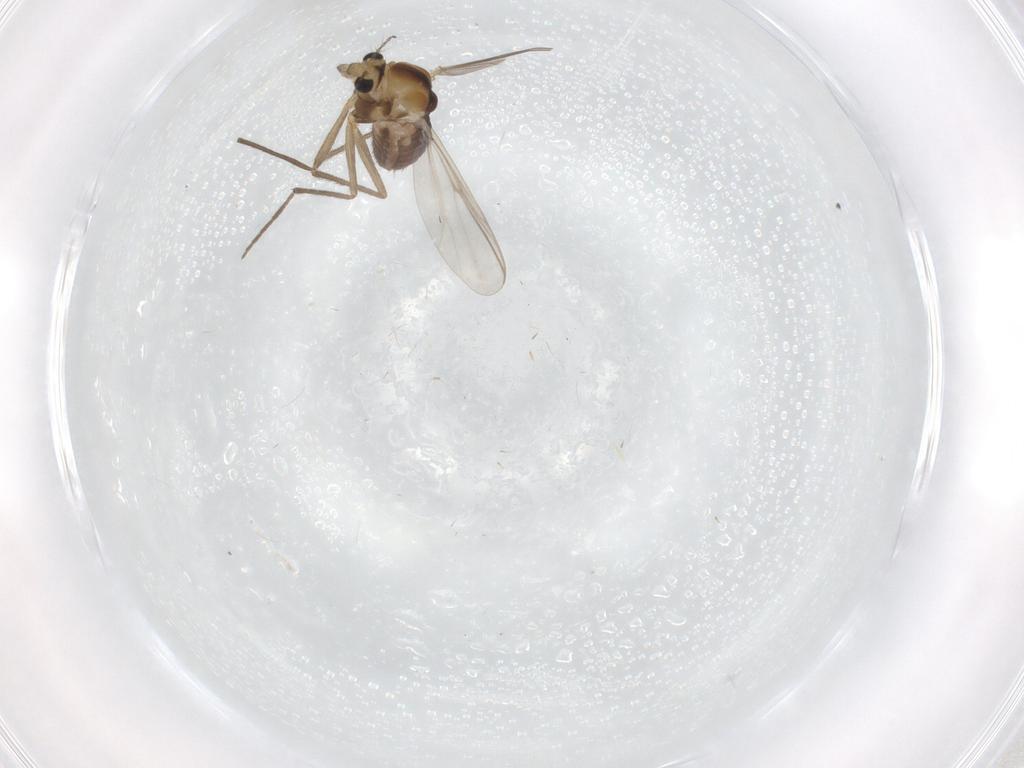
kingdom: Animalia
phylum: Arthropoda
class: Insecta
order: Diptera
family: Chironomidae
